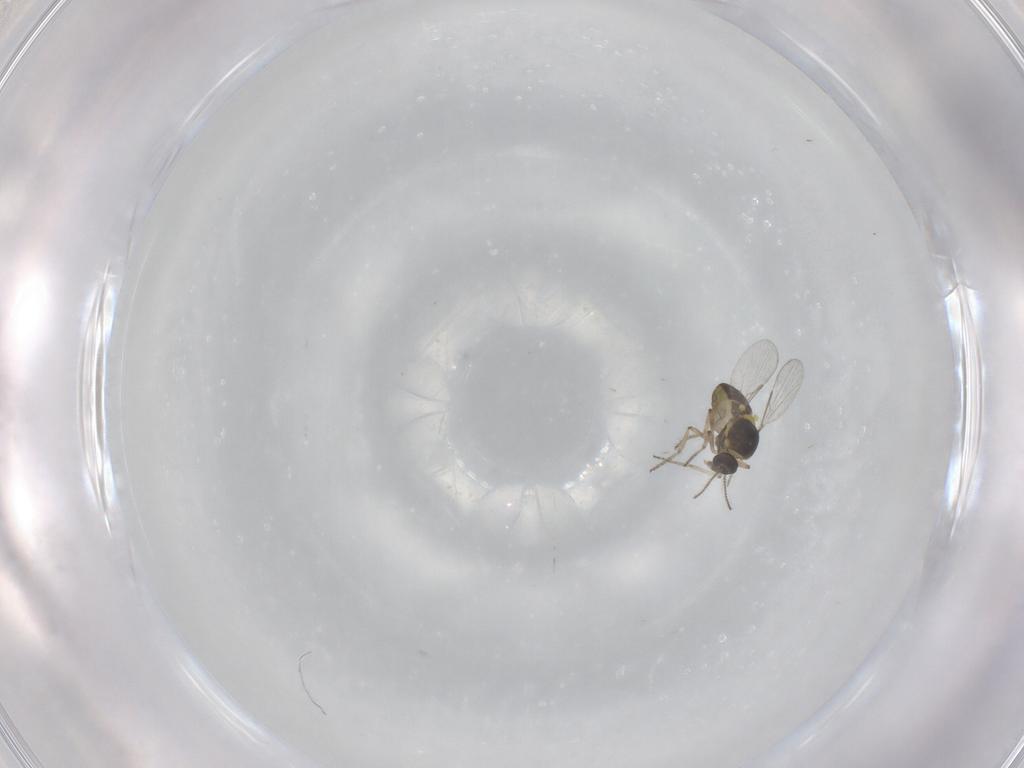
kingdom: Animalia
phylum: Arthropoda
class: Insecta
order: Diptera
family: Ceratopogonidae
